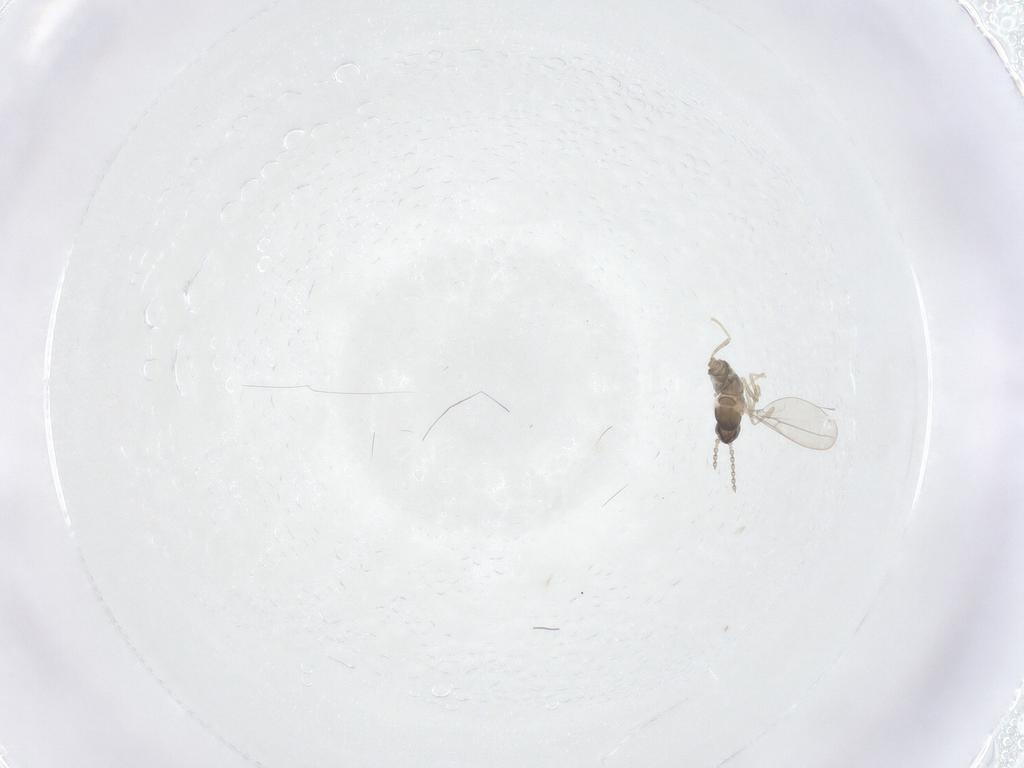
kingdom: Animalia
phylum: Arthropoda
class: Insecta
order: Diptera
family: Cecidomyiidae
